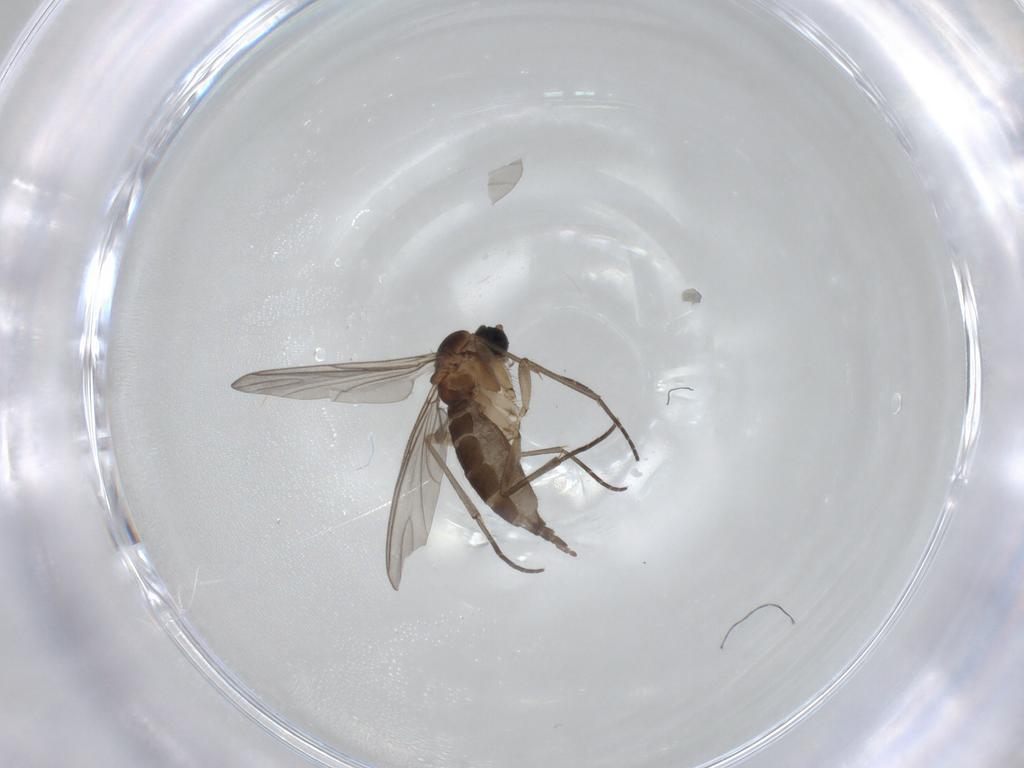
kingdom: Animalia
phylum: Arthropoda
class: Insecta
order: Diptera
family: Sciaridae
